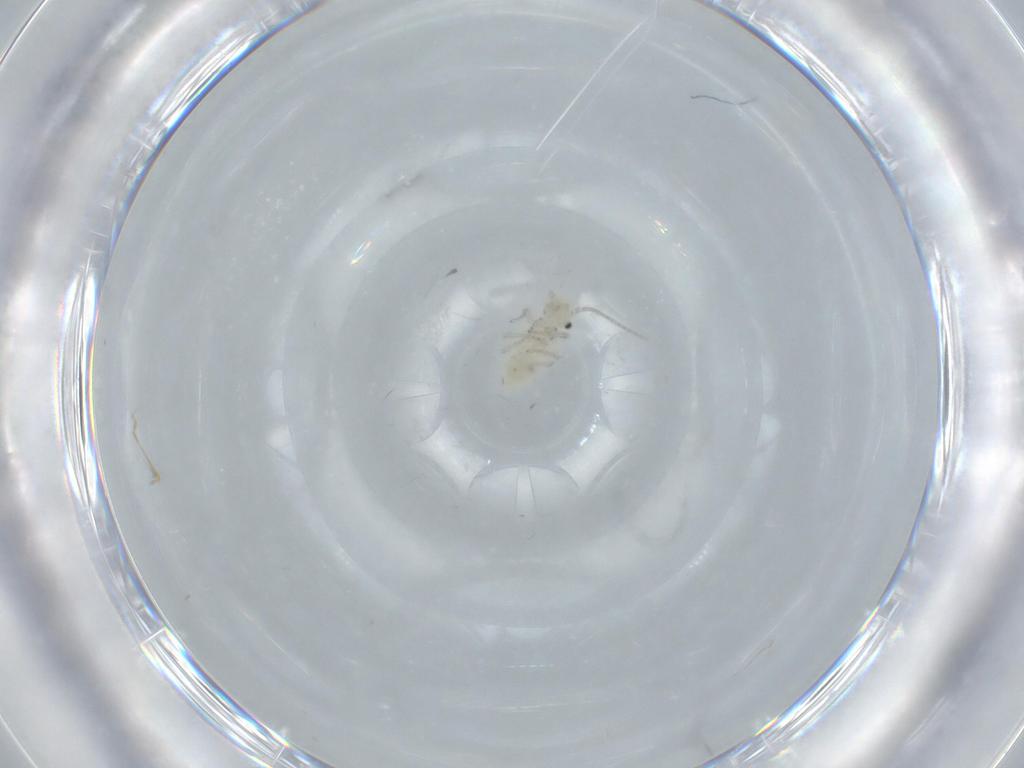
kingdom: Animalia
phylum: Arthropoda
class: Insecta
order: Psocodea
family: Caeciliusidae
